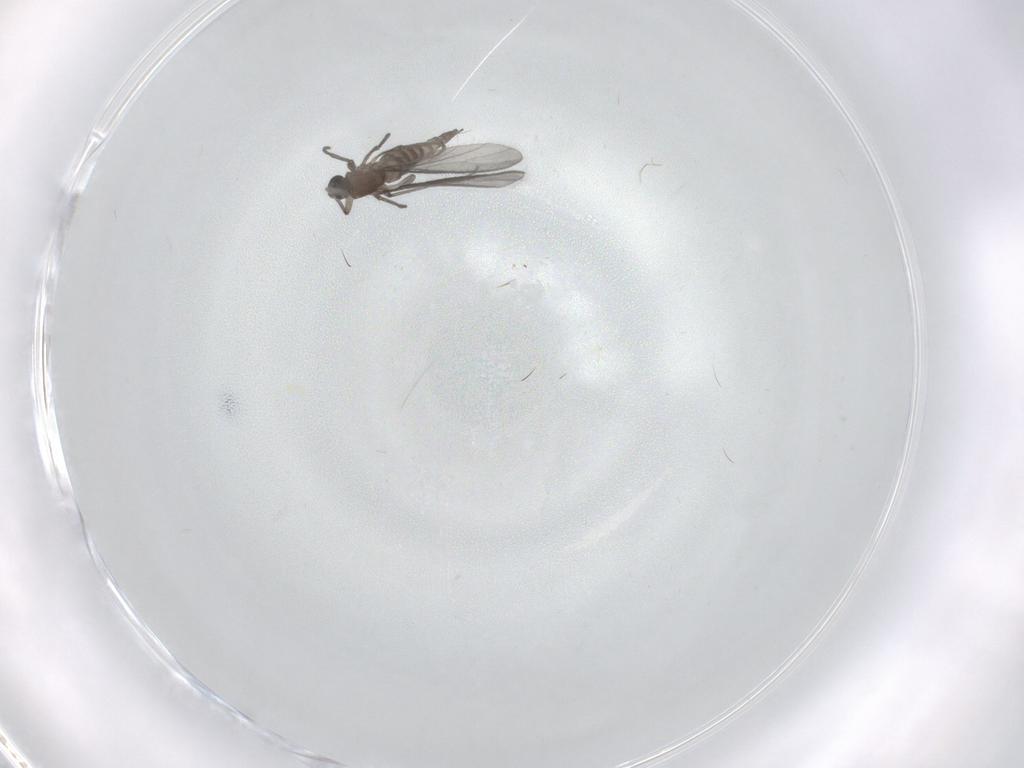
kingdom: Animalia
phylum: Arthropoda
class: Insecta
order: Diptera
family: Sciaridae
